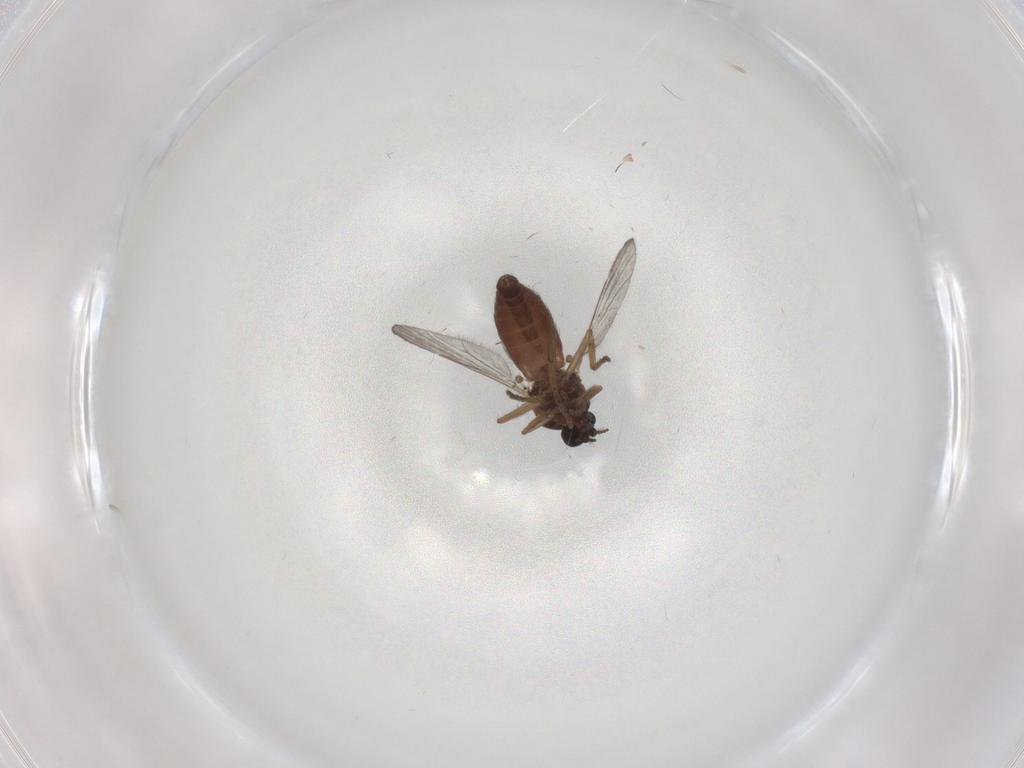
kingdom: Animalia
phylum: Arthropoda
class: Insecta
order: Diptera
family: Ceratopogonidae
